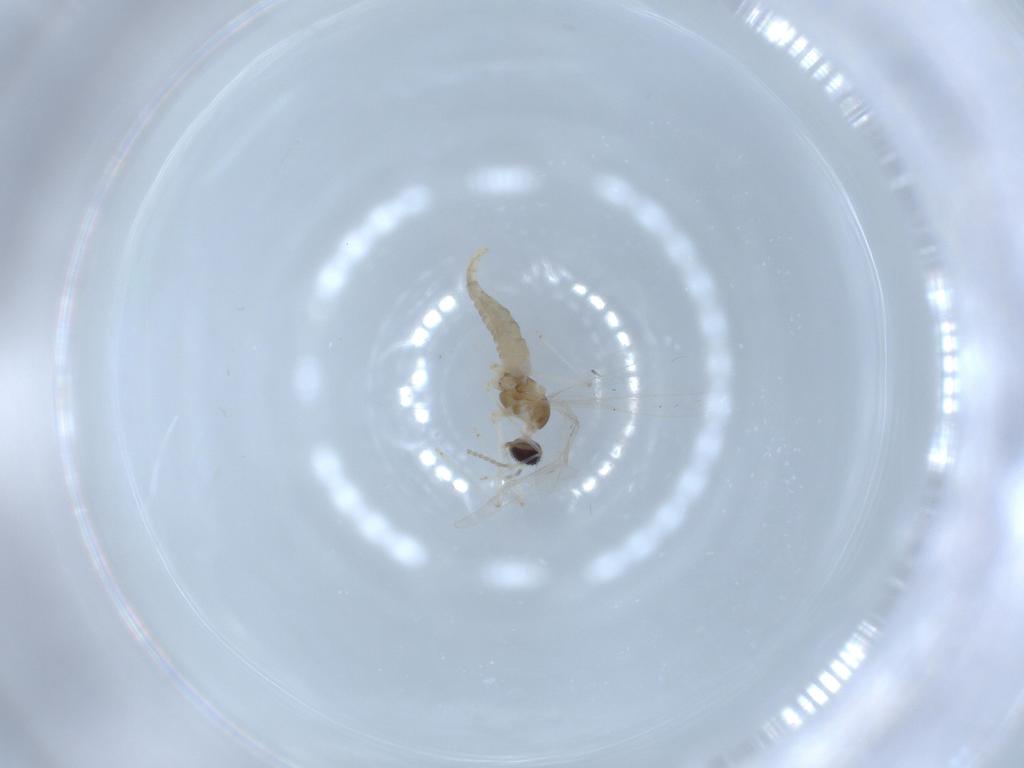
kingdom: Animalia
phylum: Arthropoda
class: Insecta
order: Diptera
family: Cecidomyiidae
